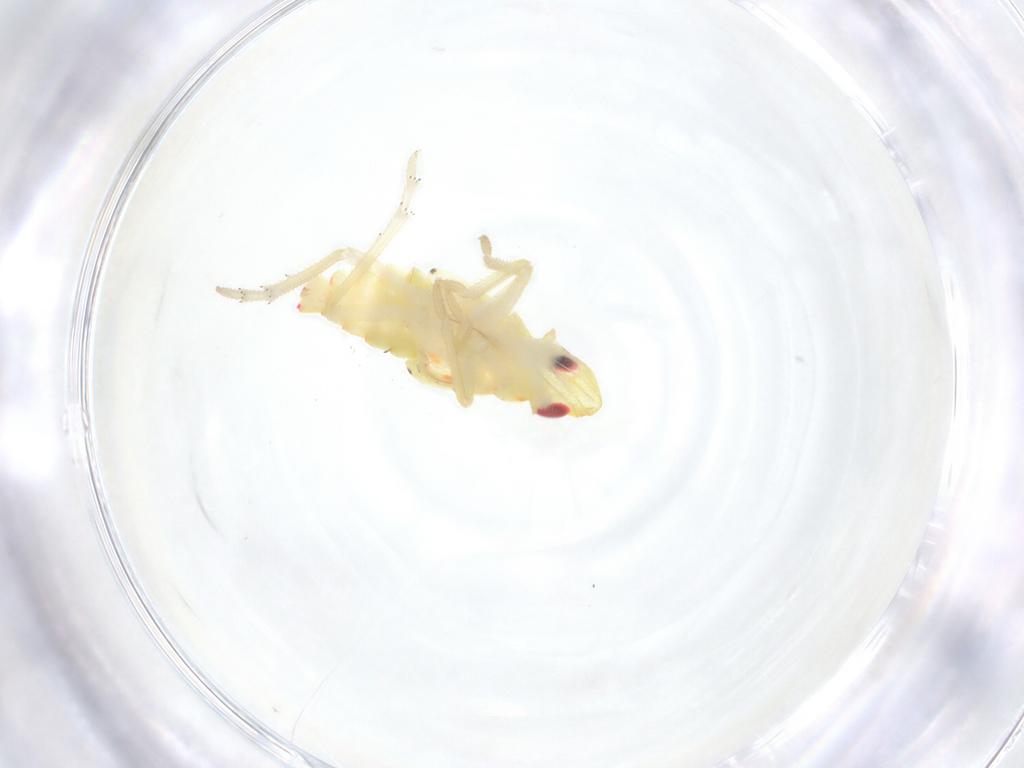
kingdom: Animalia
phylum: Arthropoda
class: Insecta
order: Hemiptera
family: Tropiduchidae
